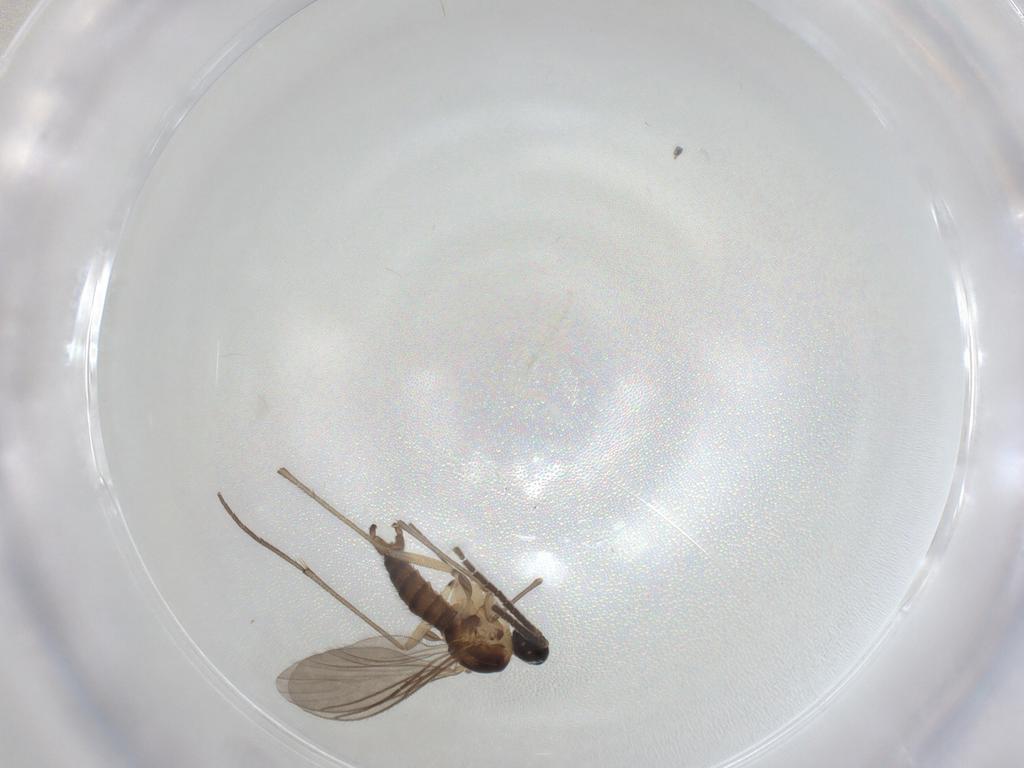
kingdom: Animalia
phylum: Arthropoda
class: Insecta
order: Diptera
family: Sciaridae
